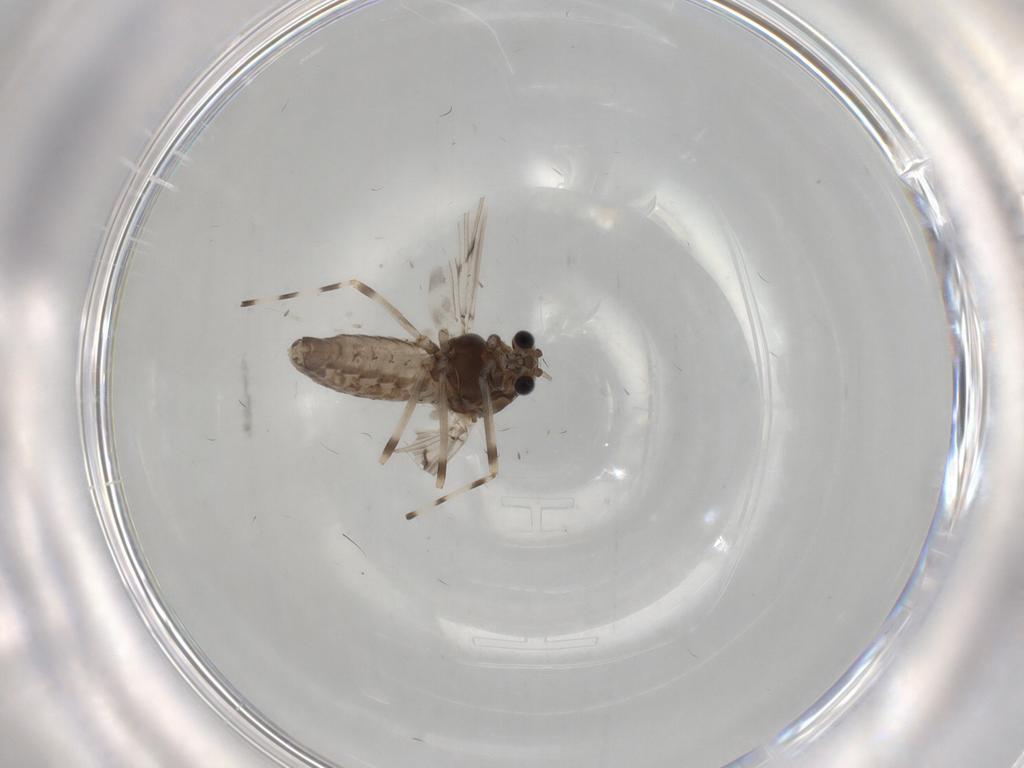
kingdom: Animalia
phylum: Arthropoda
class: Insecta
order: Diptera
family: Chironomidae
